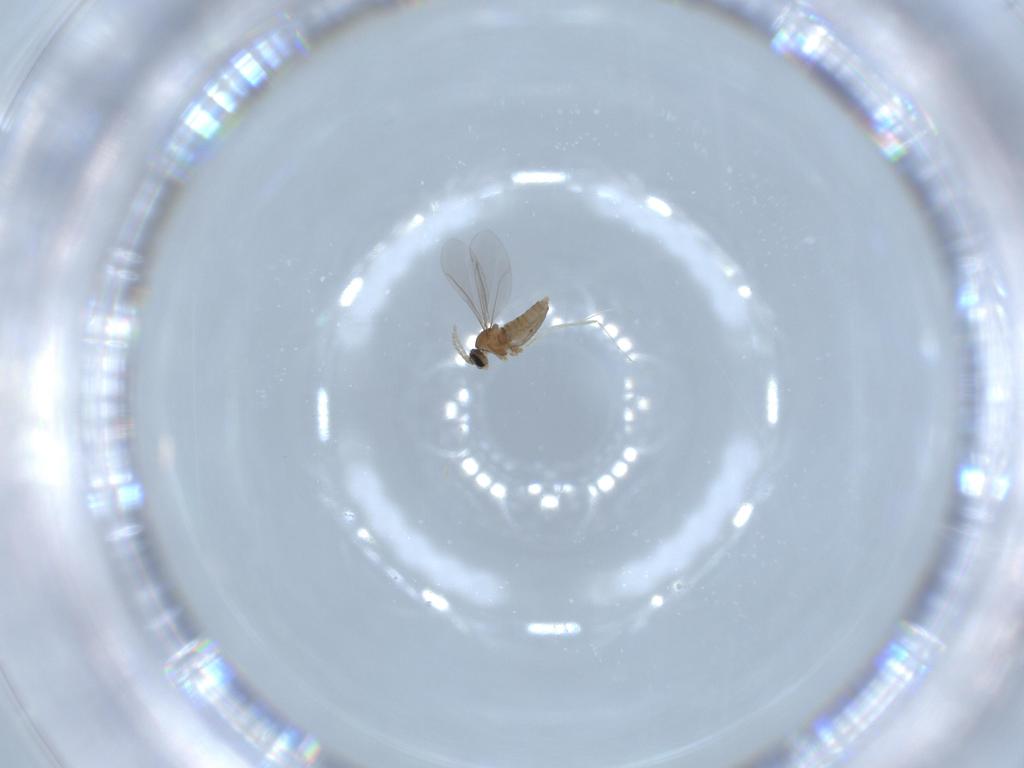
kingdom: Animalia
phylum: Arthropoda
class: Insecta
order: Diptera
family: Cecidomyiidae
